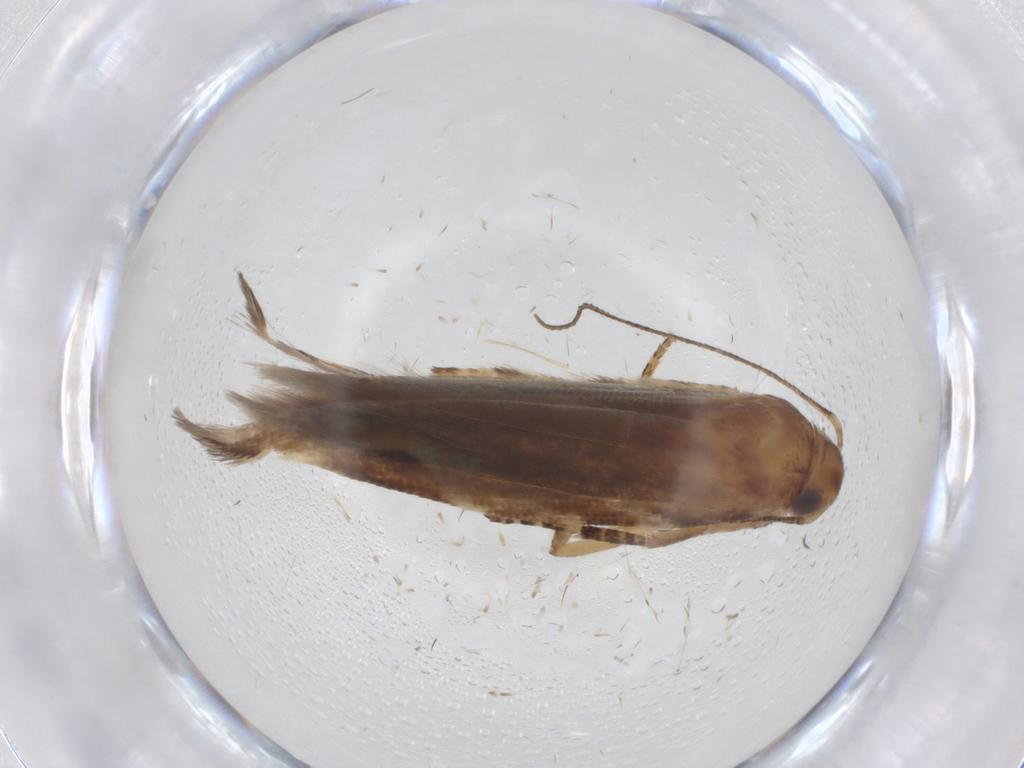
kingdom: Animalia
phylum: Arthropoda
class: Insecta
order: Lepidoptera
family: Gelechiidae
